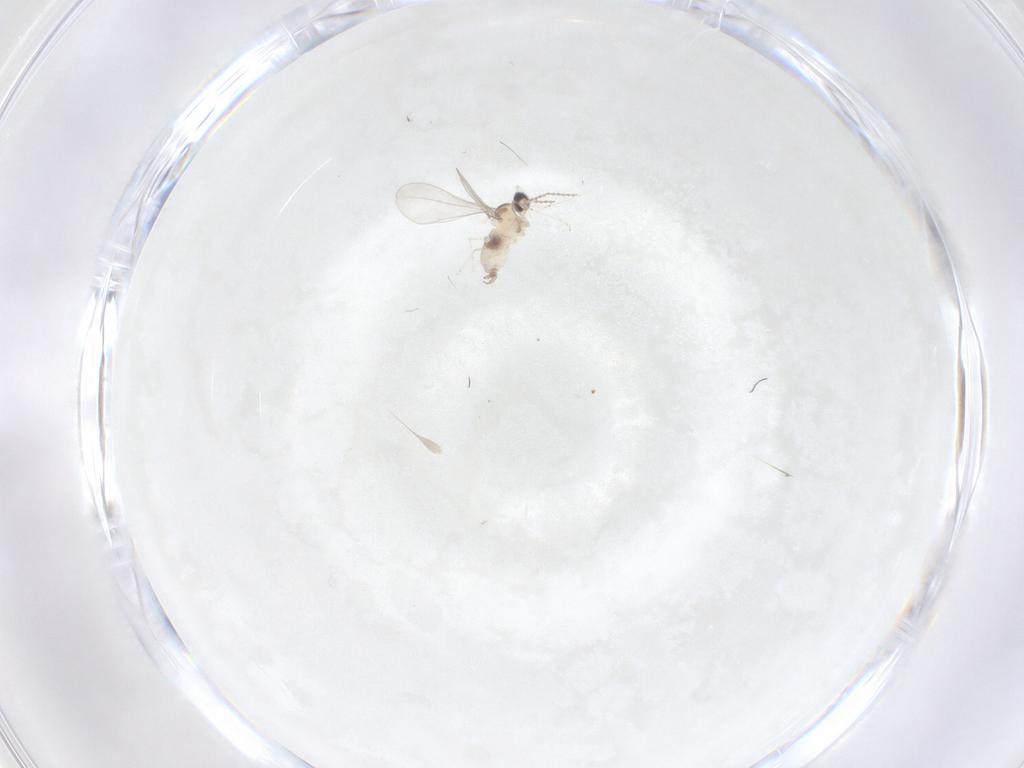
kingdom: Animalia
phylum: Arthropoda
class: Insecta
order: Diptera
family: Cecidomyiidae
